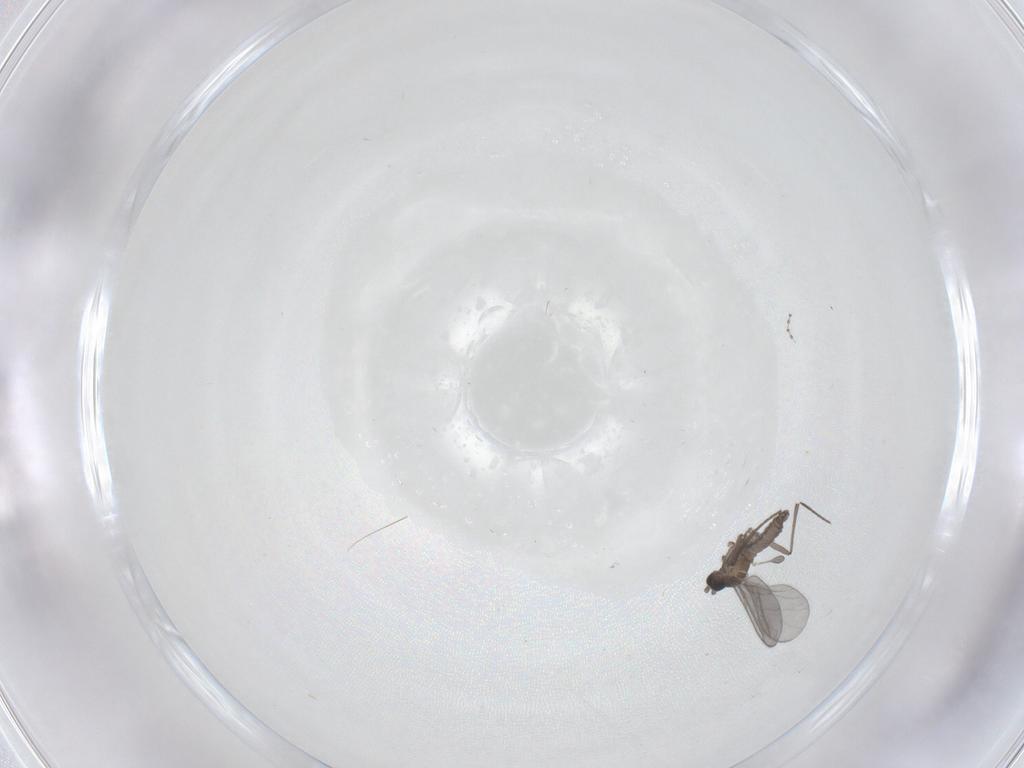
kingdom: Animalia
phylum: Arthropoda
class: Insecta
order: Diptera
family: Sciaridae
